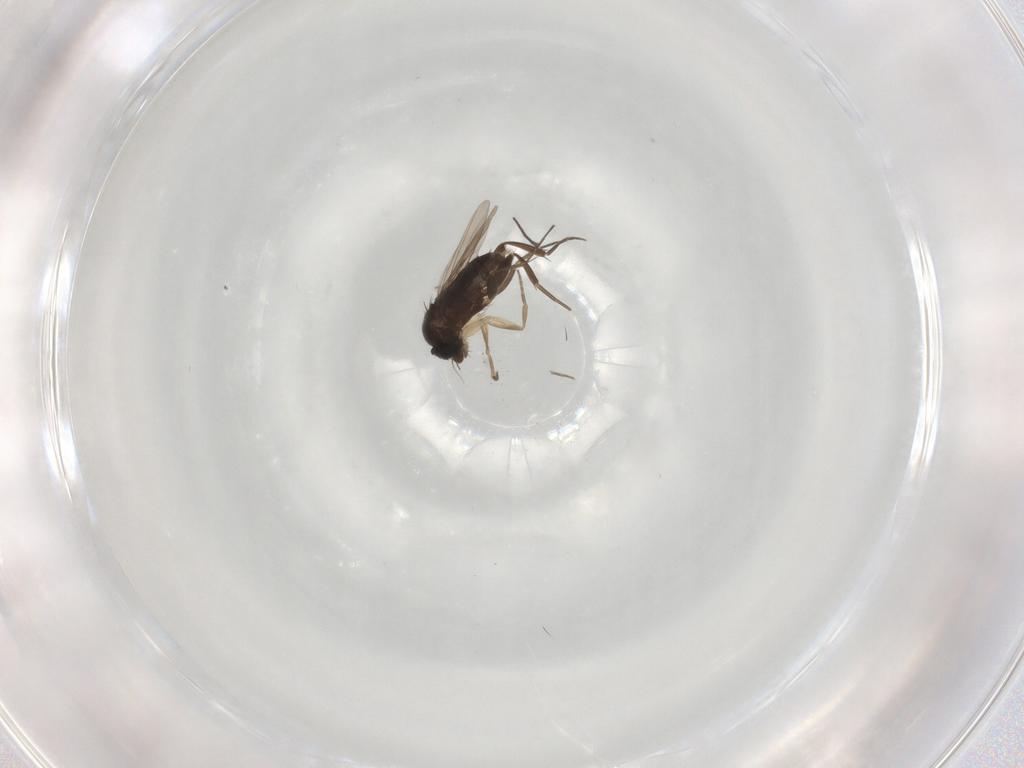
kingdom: Animalia
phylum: Arthropoda
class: Insecta
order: Diptera
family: Phoridae
